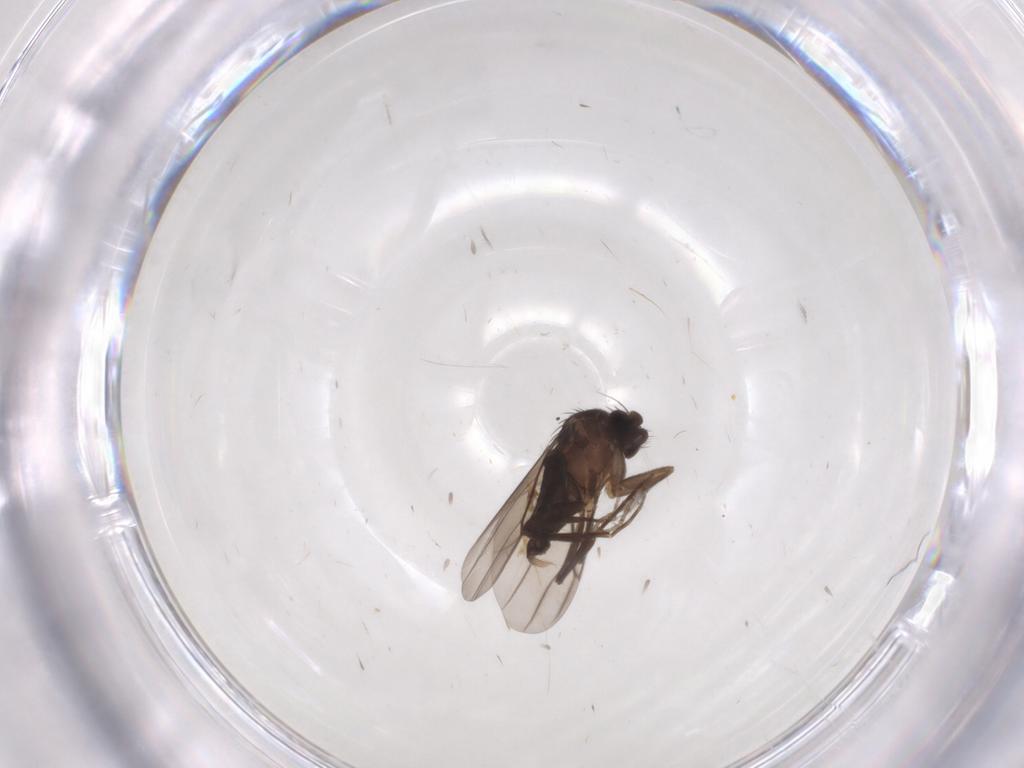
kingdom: Animalia
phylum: Arthropoda
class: Insecta
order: Diptera
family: Phoridae
